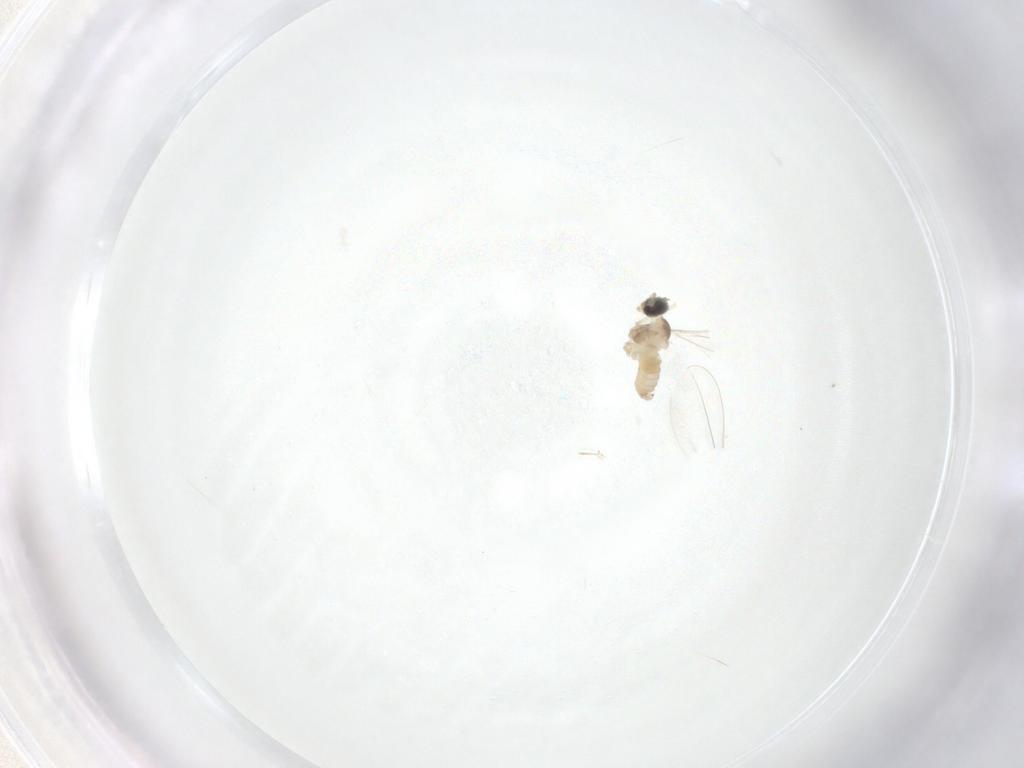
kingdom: Animalia
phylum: Arthropoda
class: Insecta
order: Diptera
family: Cecidomyiidae
